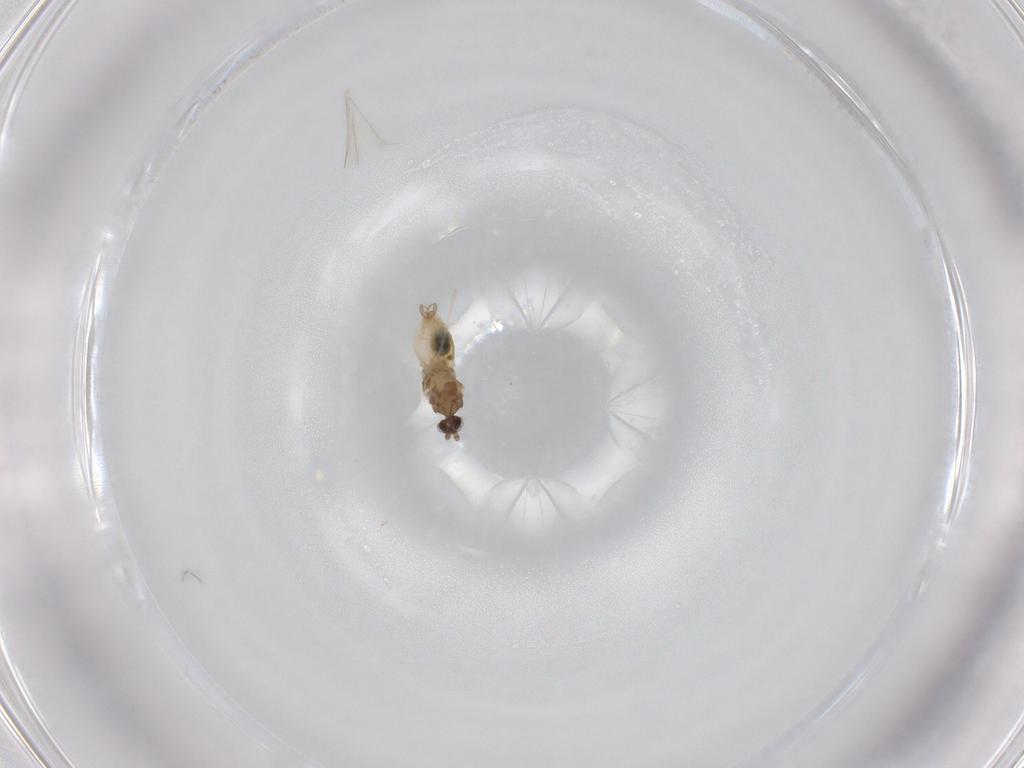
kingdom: Animalia
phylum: Arthropoda
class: Insecta
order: Diptera
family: Cecidomyiidae
